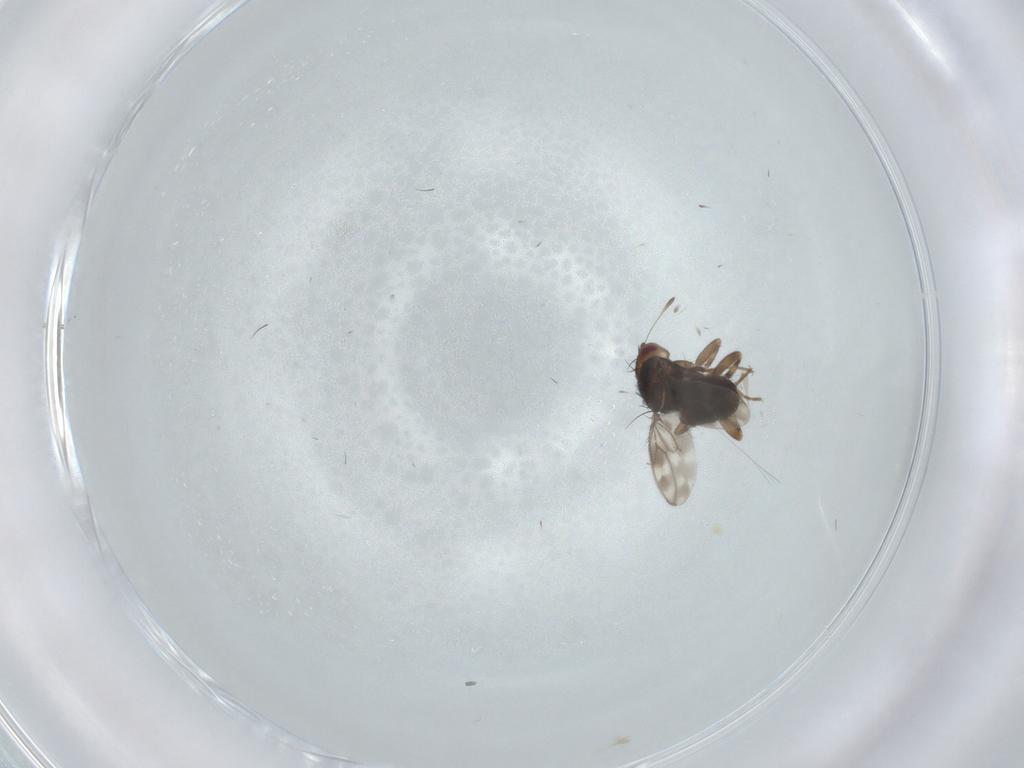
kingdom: Animalia
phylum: Arthropoda
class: Insecta
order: Diptera
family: Sphaeroceridae
